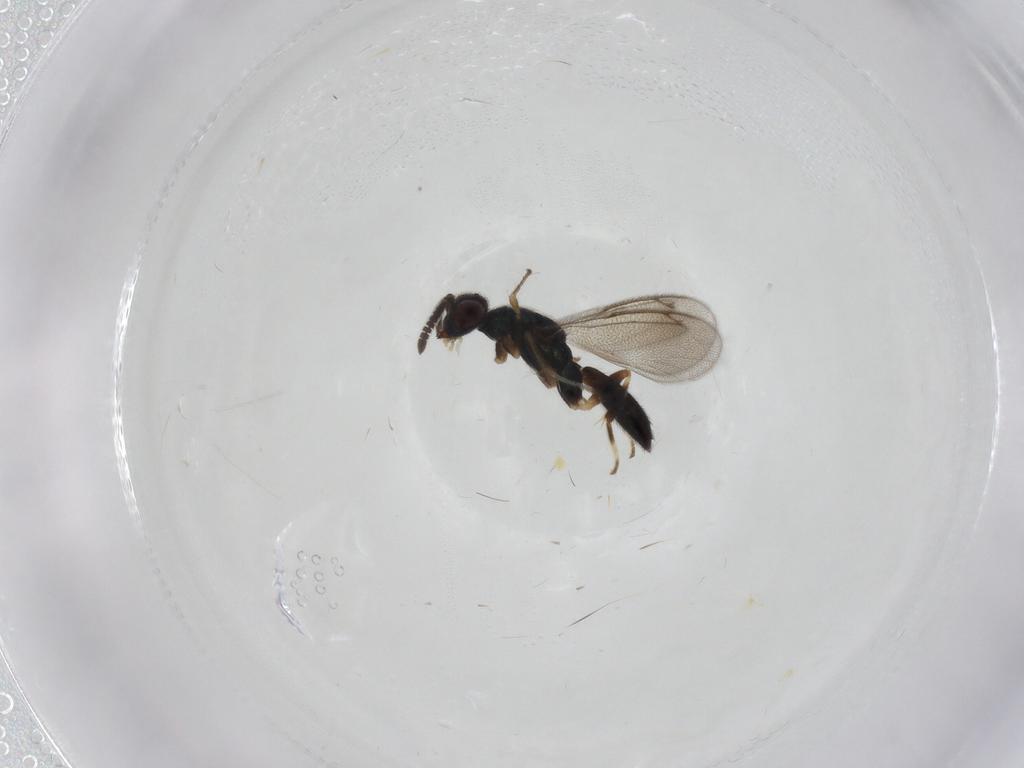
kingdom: Animalia
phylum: Arthropoda
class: Insecta
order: Hymenoptera
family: Cleonyminae
